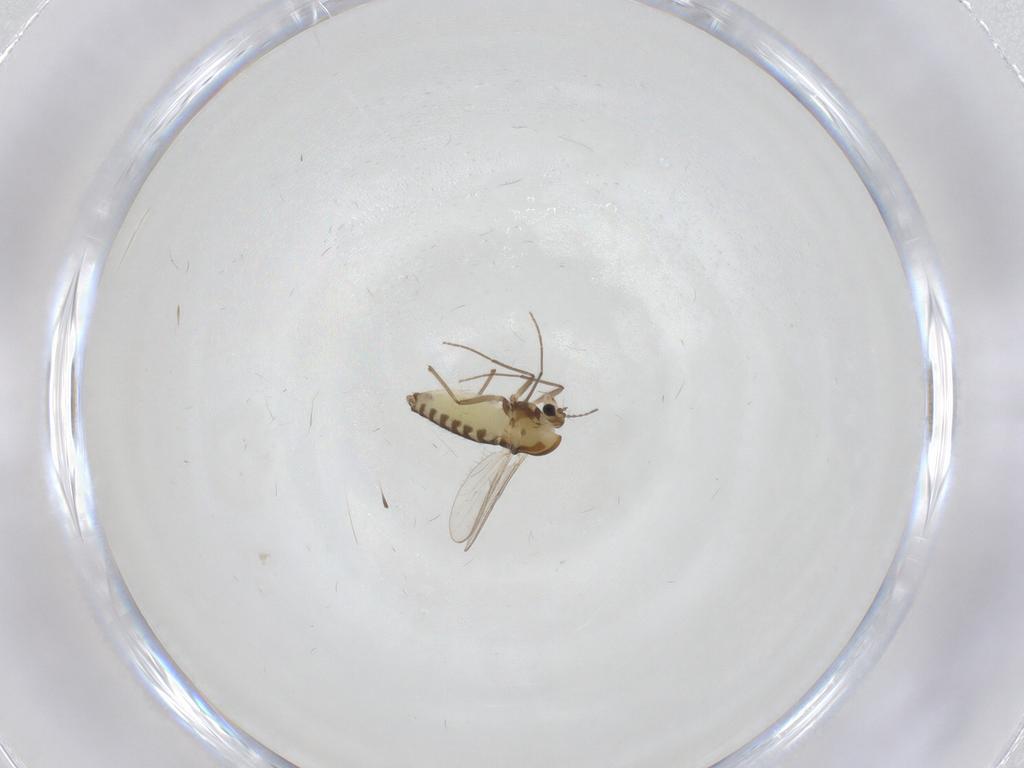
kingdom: Animalia
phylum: Arthropoda
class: Insecta
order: Diptera
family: Chironomidae
